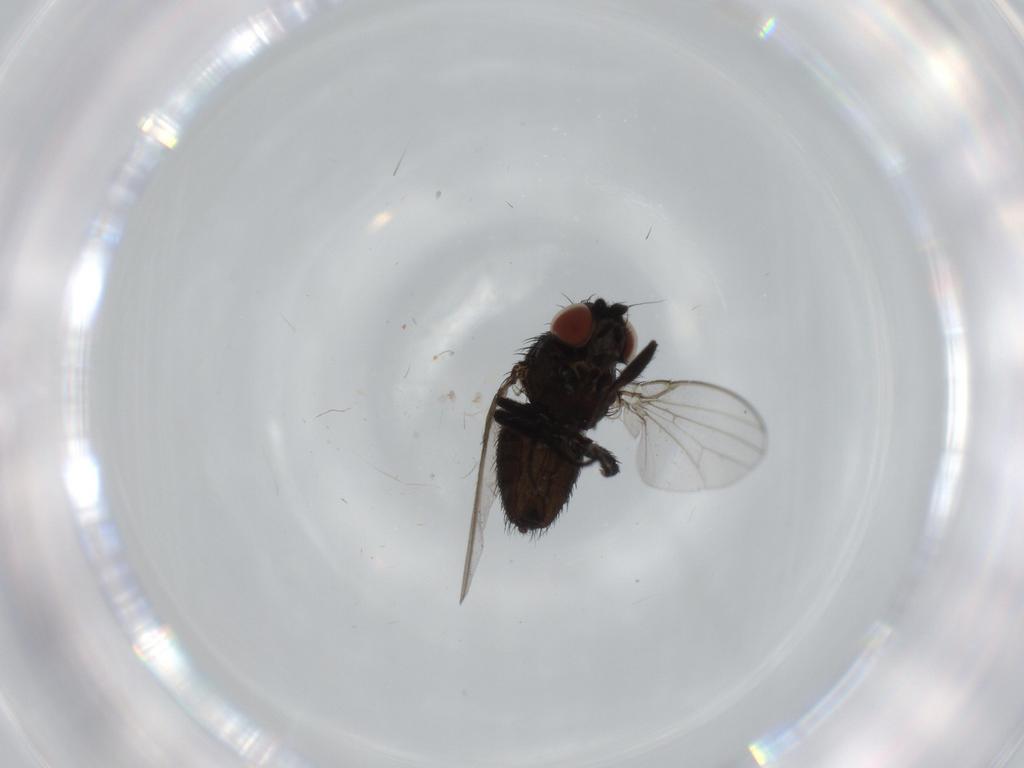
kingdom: Animalia
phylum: Arthropoda
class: Insecta
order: Diptera
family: Milichiidae
